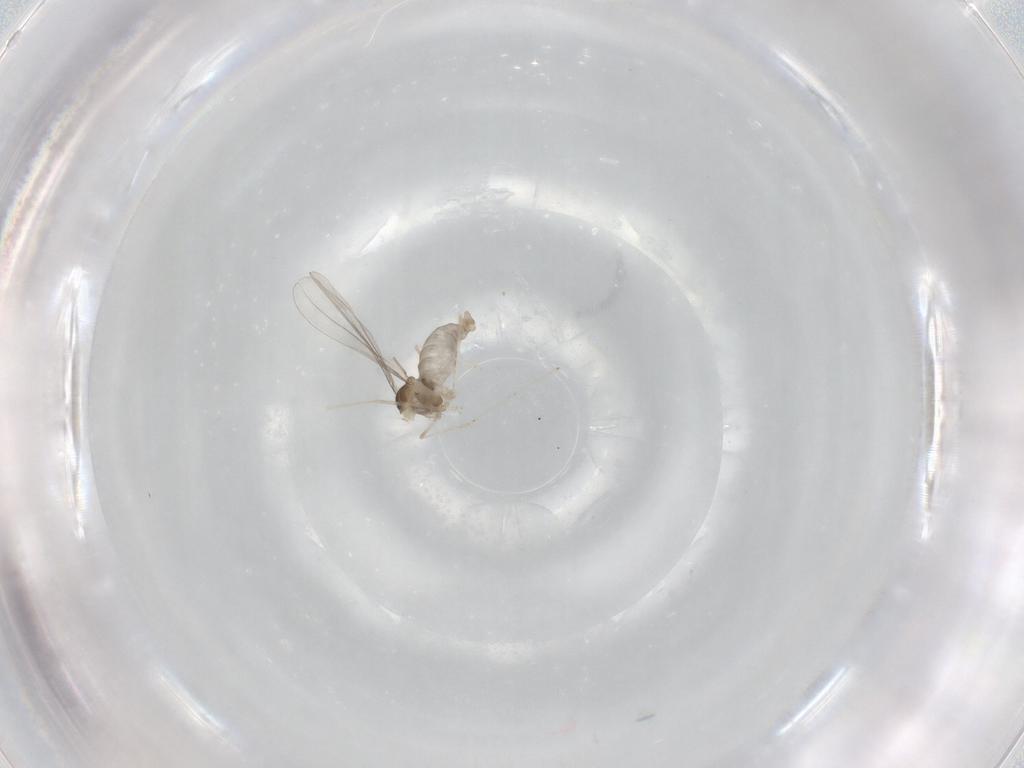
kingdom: Animalia
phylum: Arthropoda
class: Insecta
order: Diptera
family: Cecidomyiidae
